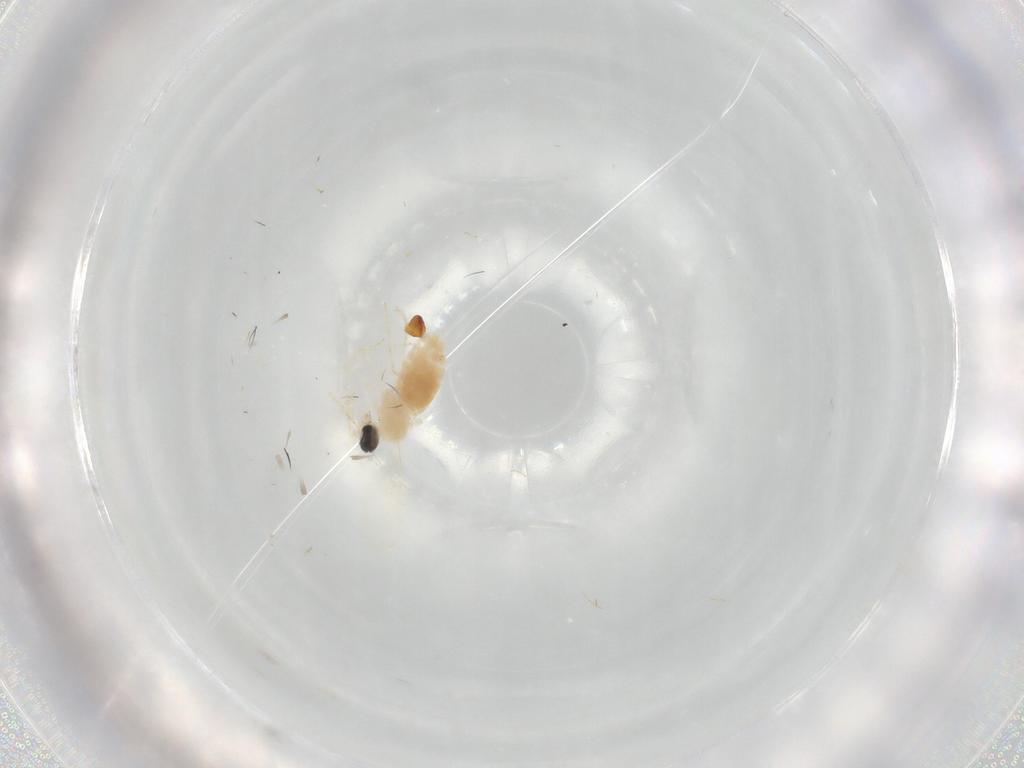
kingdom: Animalia
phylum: Arthropoda
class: Insecta
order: Diptera
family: Cecidomyiidae
